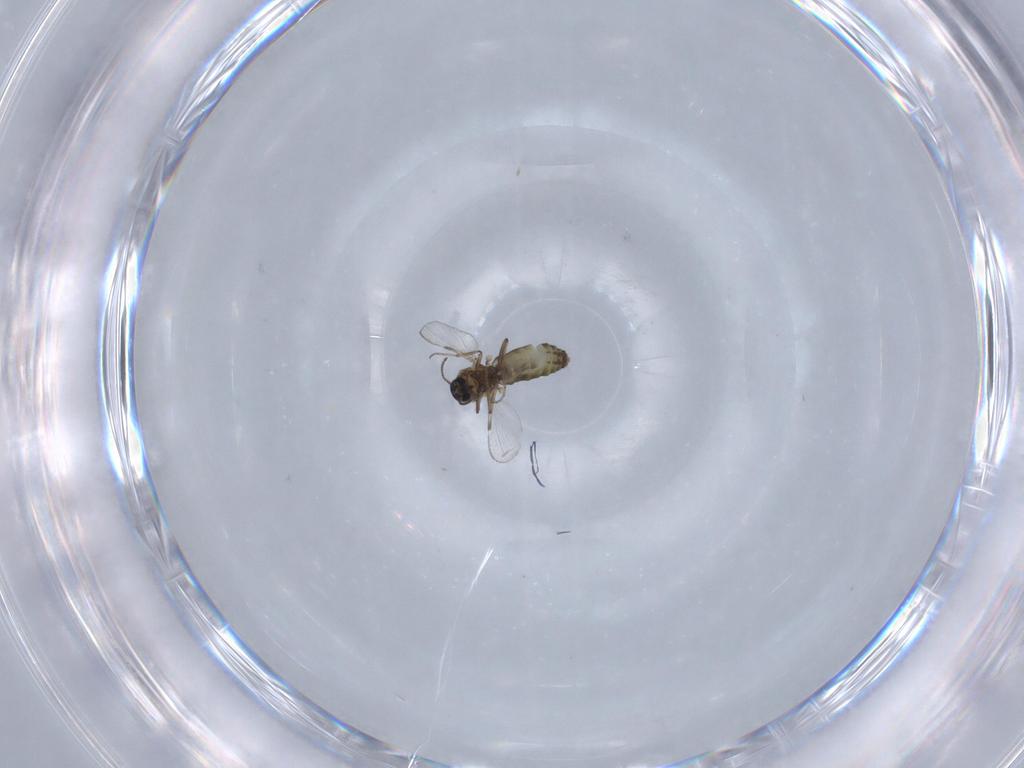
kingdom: Animalia
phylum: Arthropoda
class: Insecta
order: Diptera
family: Ceratopogonidae
